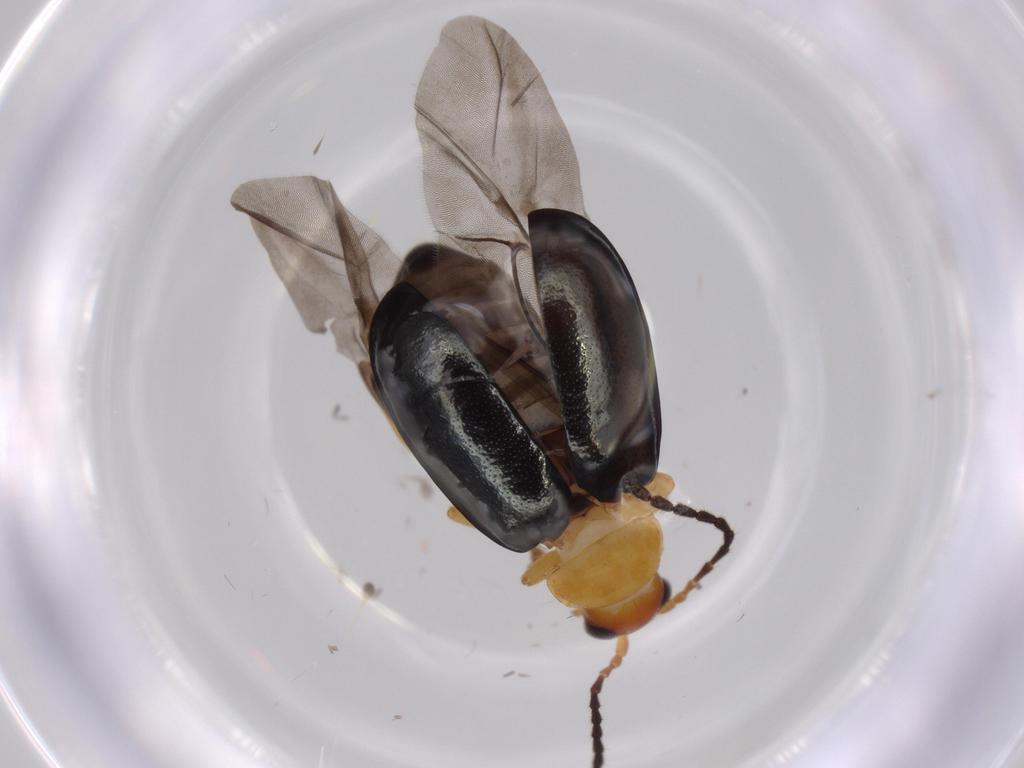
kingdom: Animalia
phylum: Arthropoda
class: Insecta
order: Coleoptera
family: Chrysomelidae
